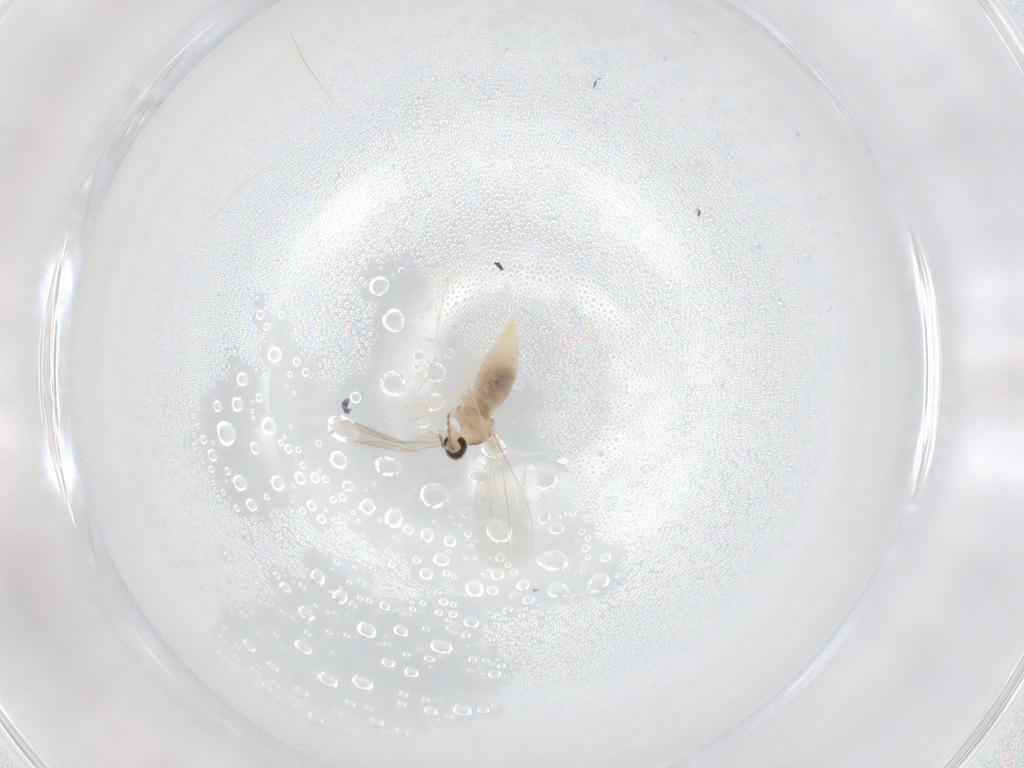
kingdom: Animalia
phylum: Arthropoda
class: Insecta
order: Diptera
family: Cecidomyiidae
